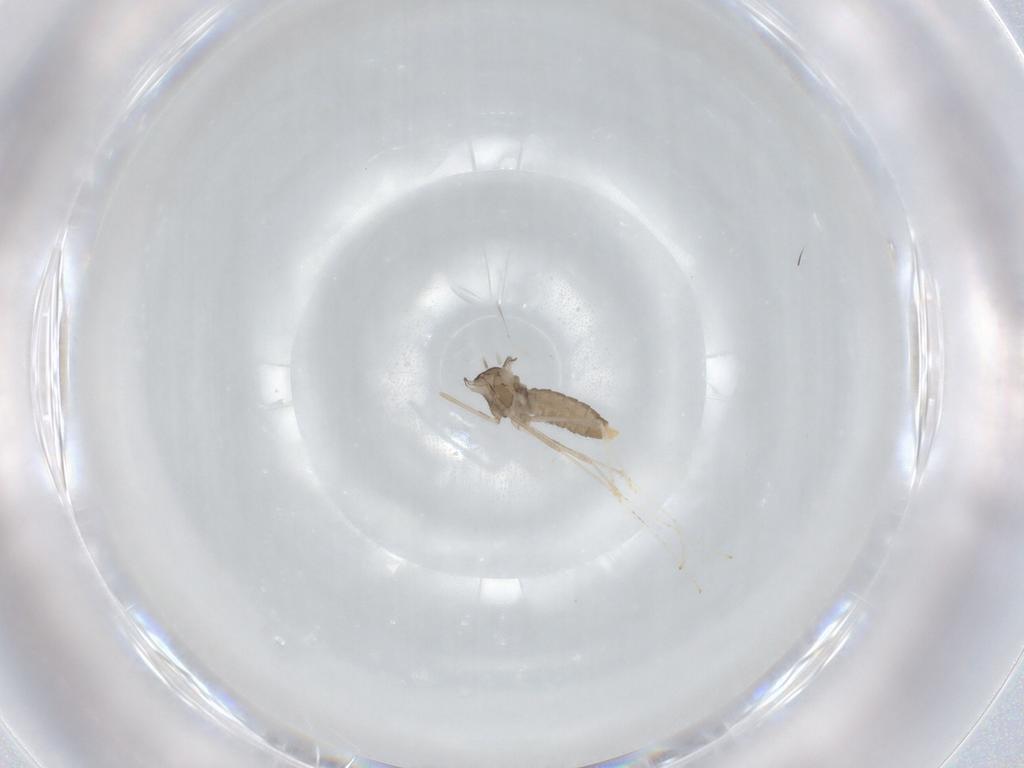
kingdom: Animalia
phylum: Arthropoda
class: Insecta
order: Diptera
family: Cecidomyiidae
